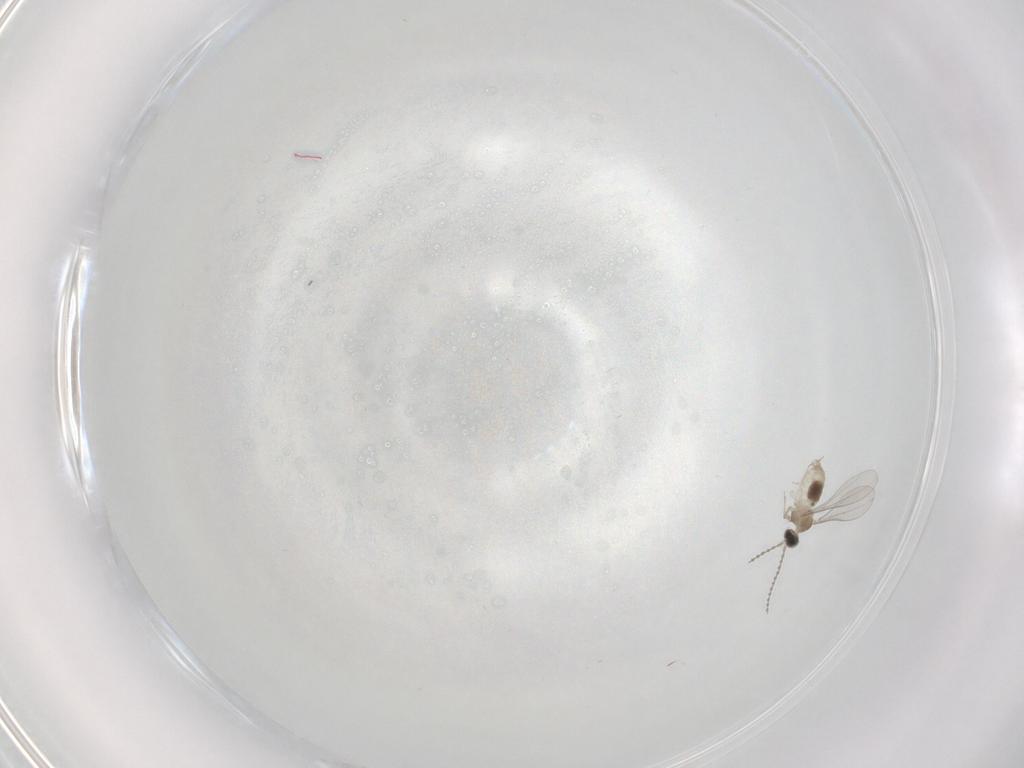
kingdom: Animalia
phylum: Arthropoda
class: Insecta
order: Diptera
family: Cecidomyiidae
